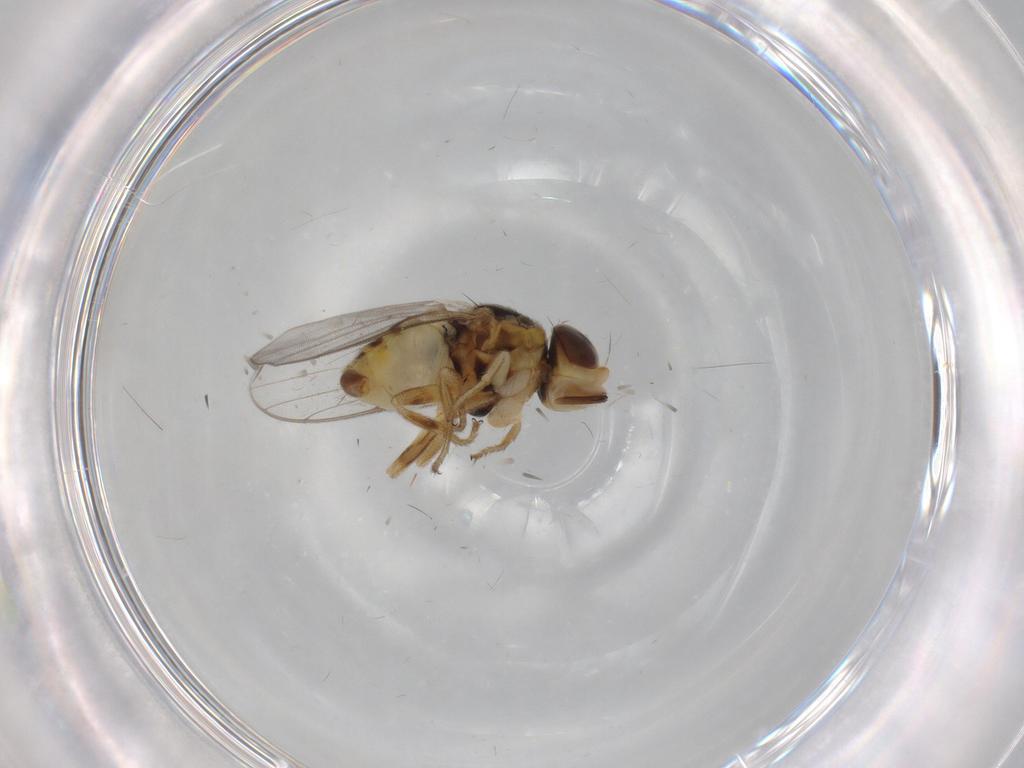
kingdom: Animalia
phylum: Arthropoda
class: Insecta
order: Diptera
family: Chloropidae
